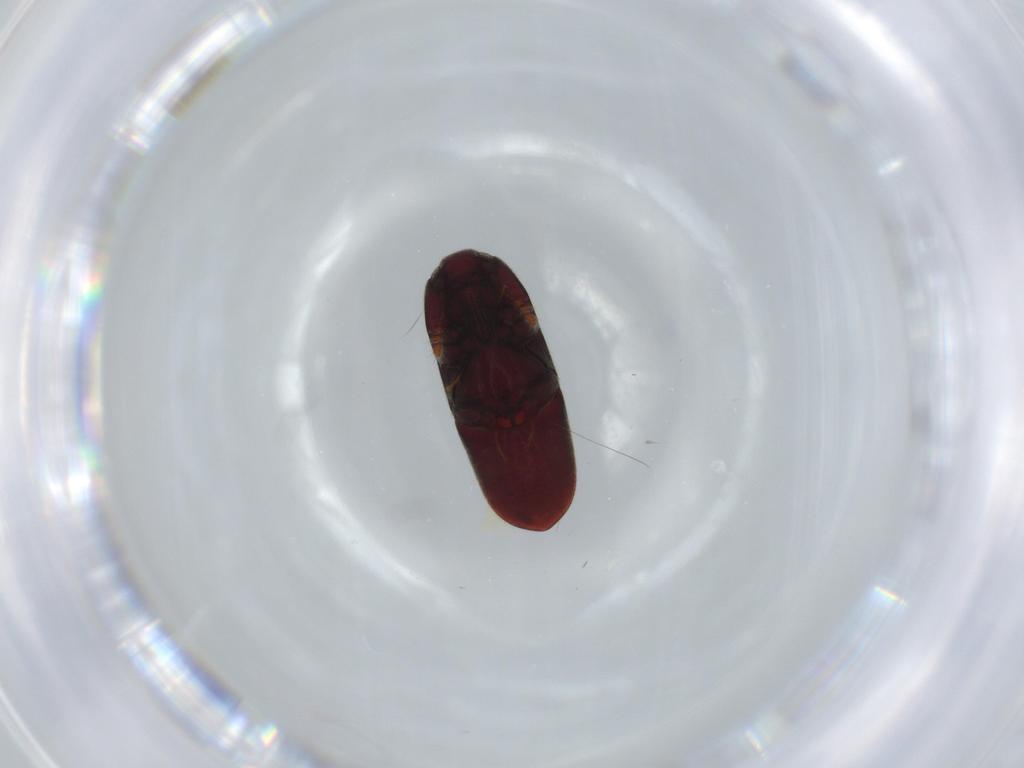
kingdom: Animalia
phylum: Arthropoda
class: Insecta
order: Coleoptera
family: Throscidae
